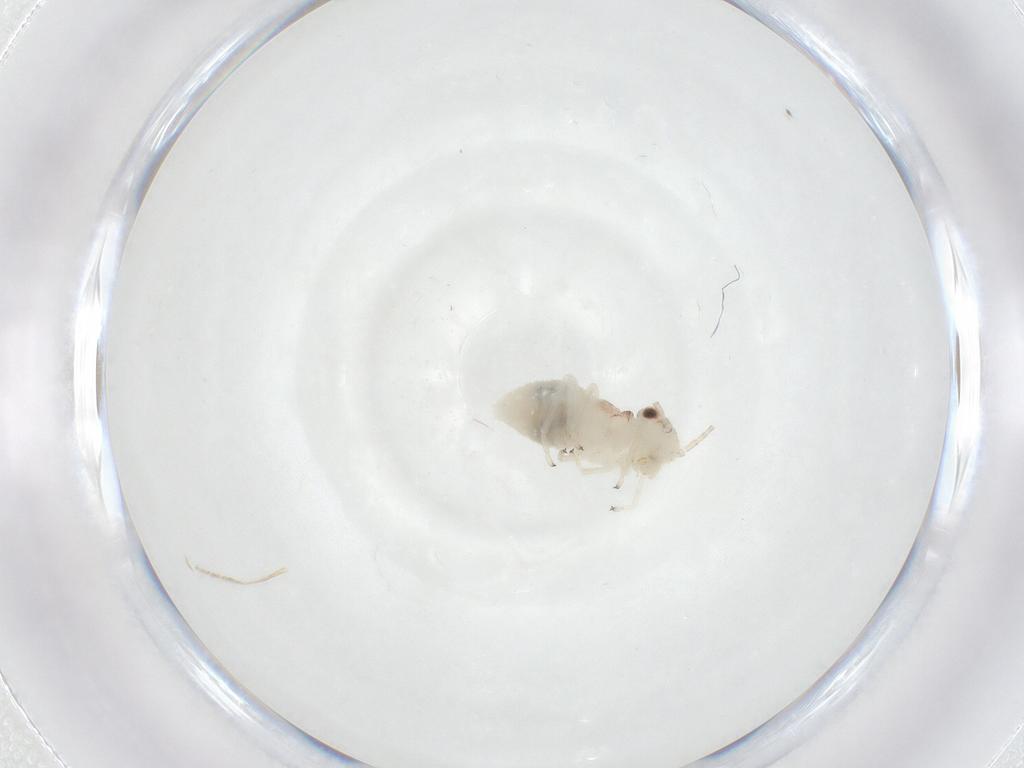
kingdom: Animalia
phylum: Arthropoda
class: Insecta
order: Psocodea
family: Amphipsocidae
